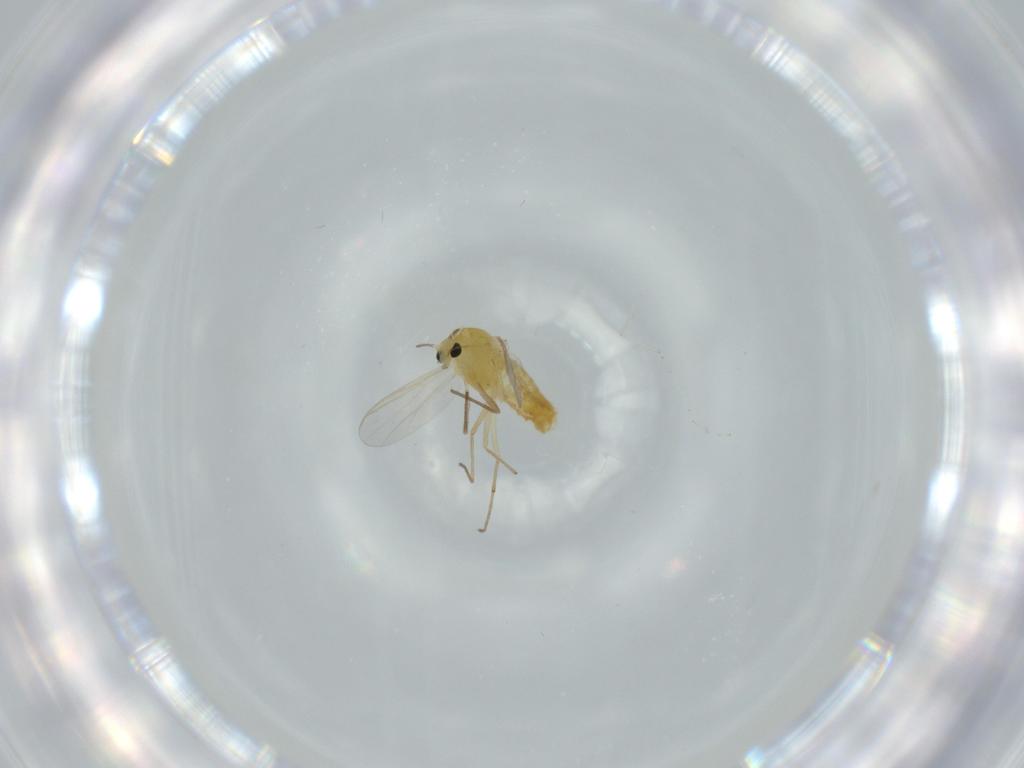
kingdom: Animalia
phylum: Arthropoda
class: Insecta
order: Diptera
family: Chironomidae
